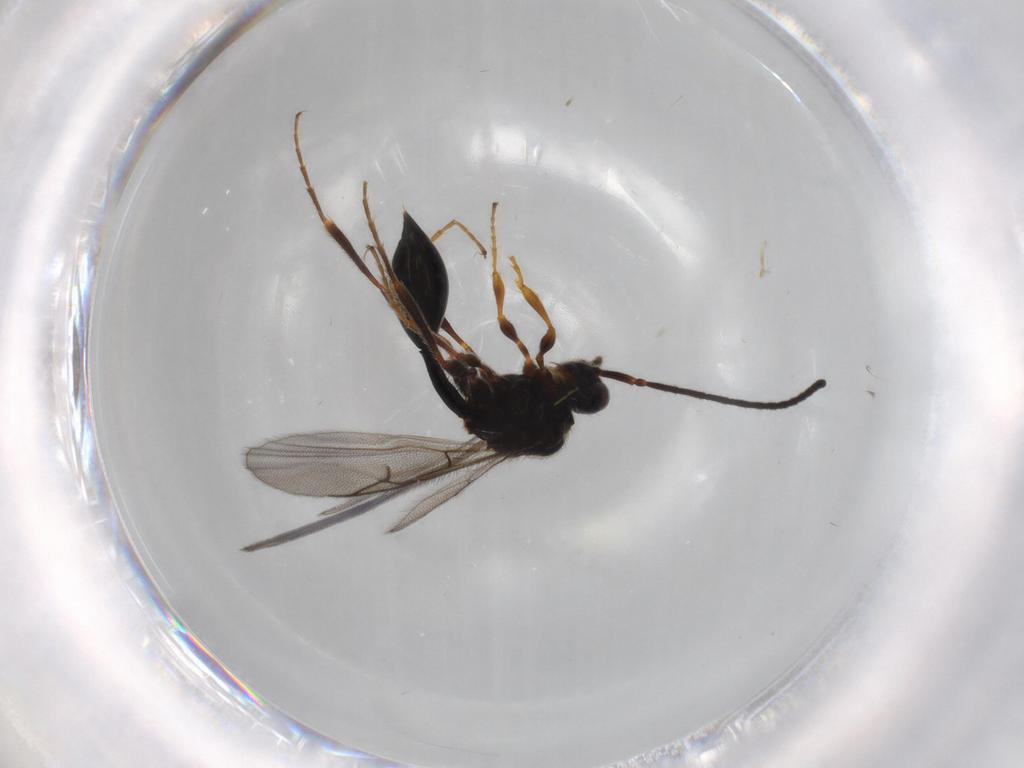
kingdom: Animalia
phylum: Arthropoda
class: Insecta
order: Hymenoptera
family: Diapriidae
